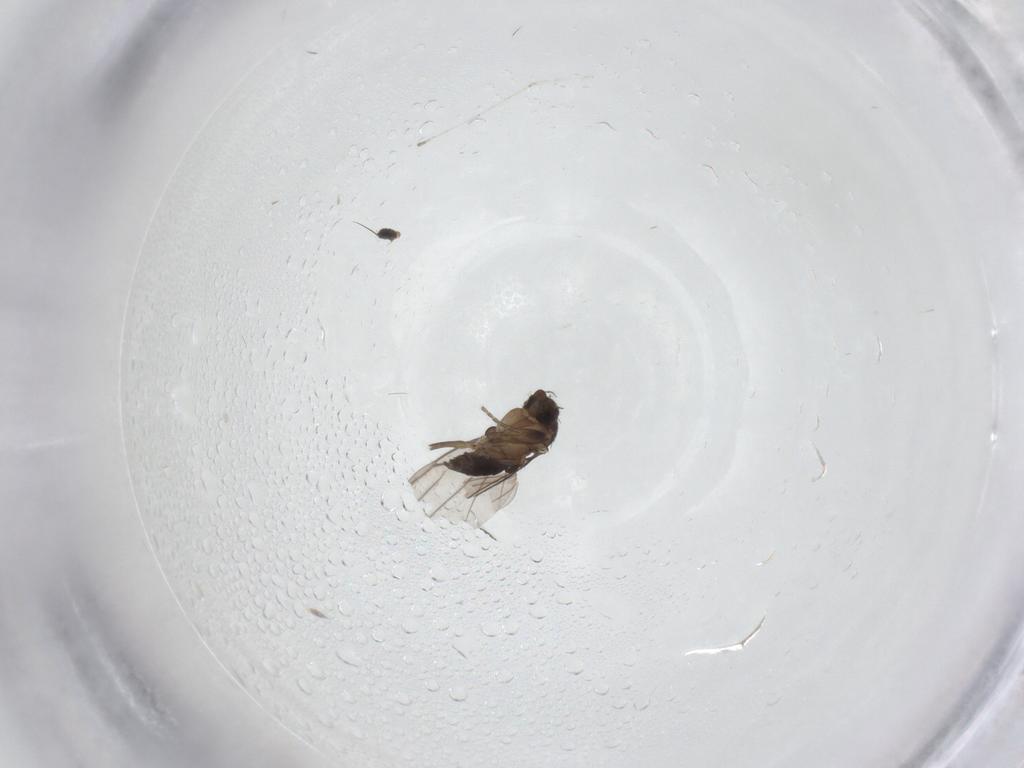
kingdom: Animalia
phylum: Arthropoda
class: Insecta
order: Diptera
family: Cecidomyiidae
